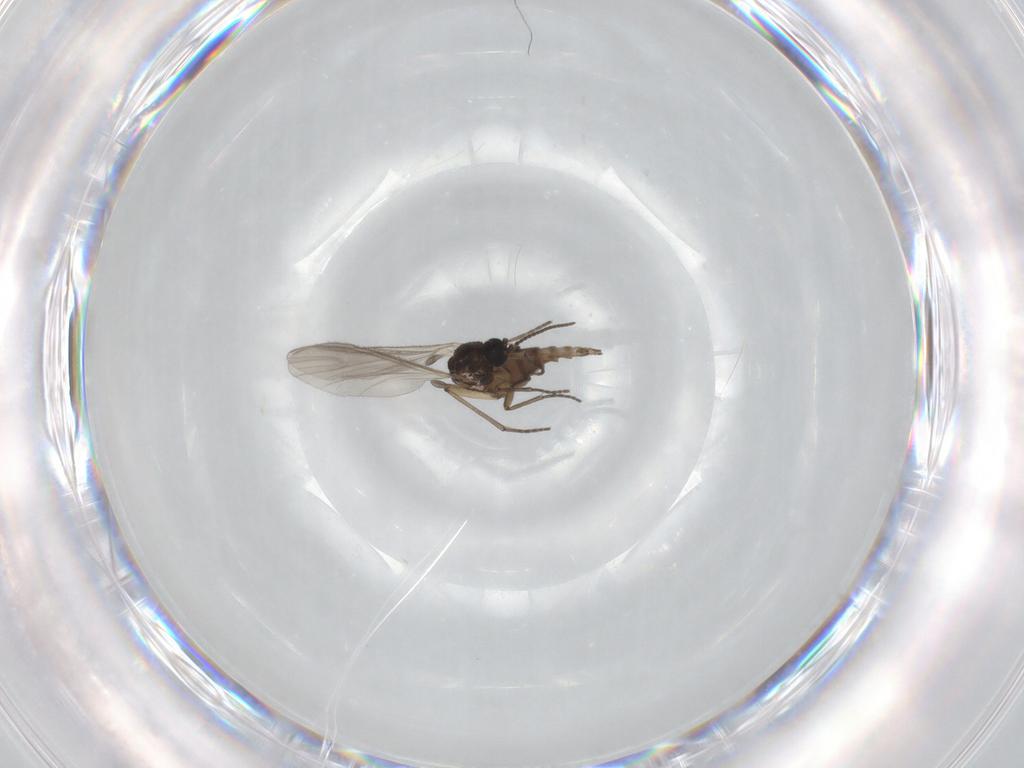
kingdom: Animalia
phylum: Arthropoda
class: Insecta
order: Diptera
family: Sciaridae
